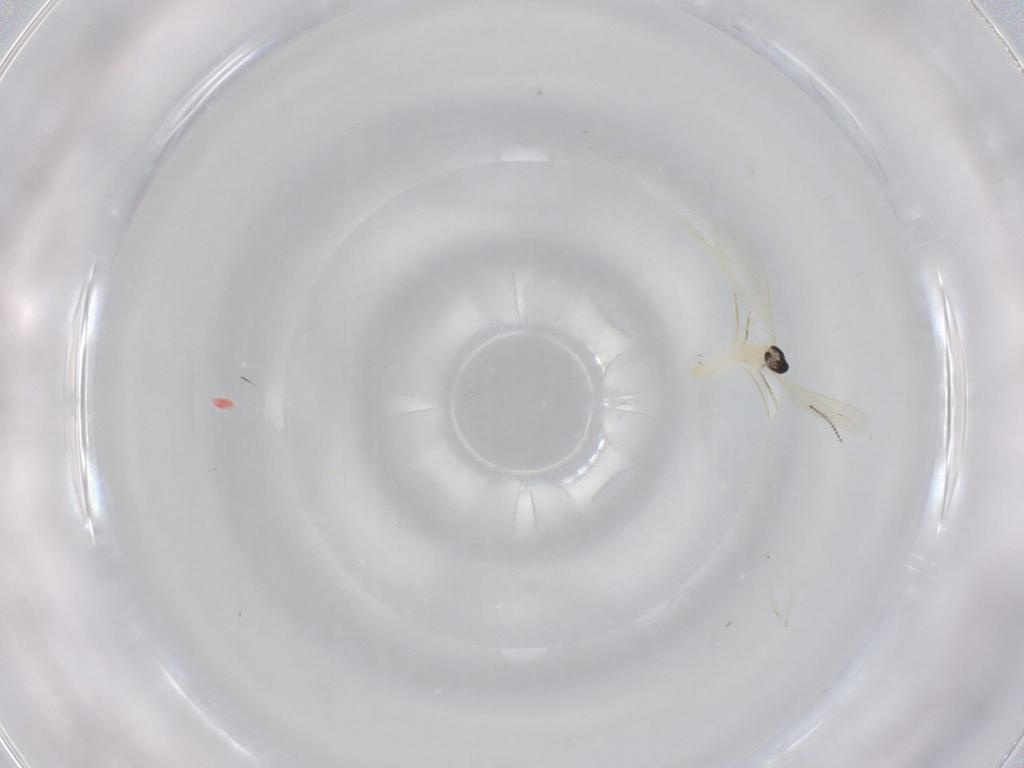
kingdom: Animalia
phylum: Arthropoda
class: Insecta
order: Diptera
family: Cecidomyiidae
